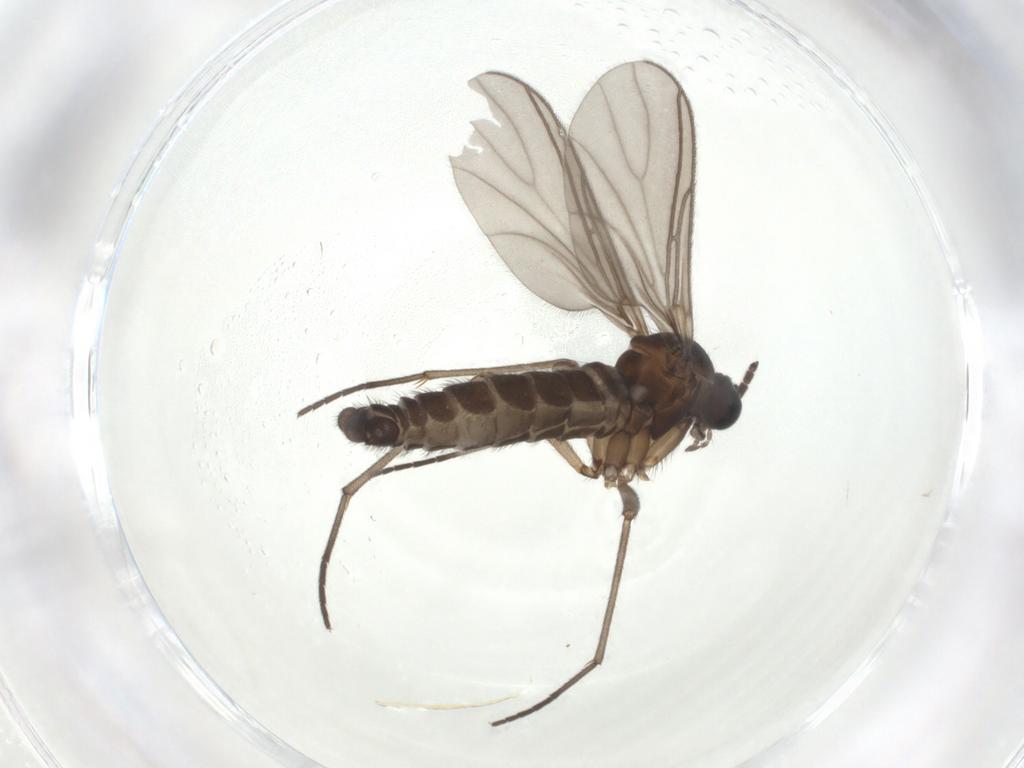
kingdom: Animalia
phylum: Arthropoda
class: Insecta
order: Diptera
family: Sciaridae
